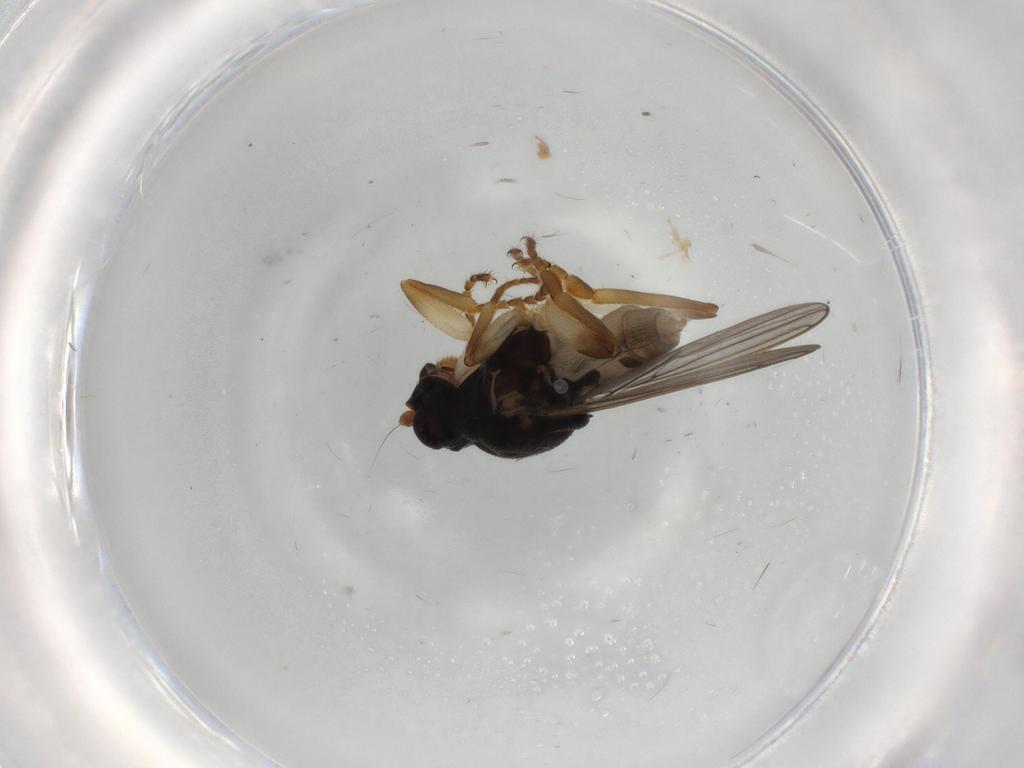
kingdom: Animalia
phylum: Arthropoda
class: Insecta
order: Diptera
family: Sphaeroceridae
